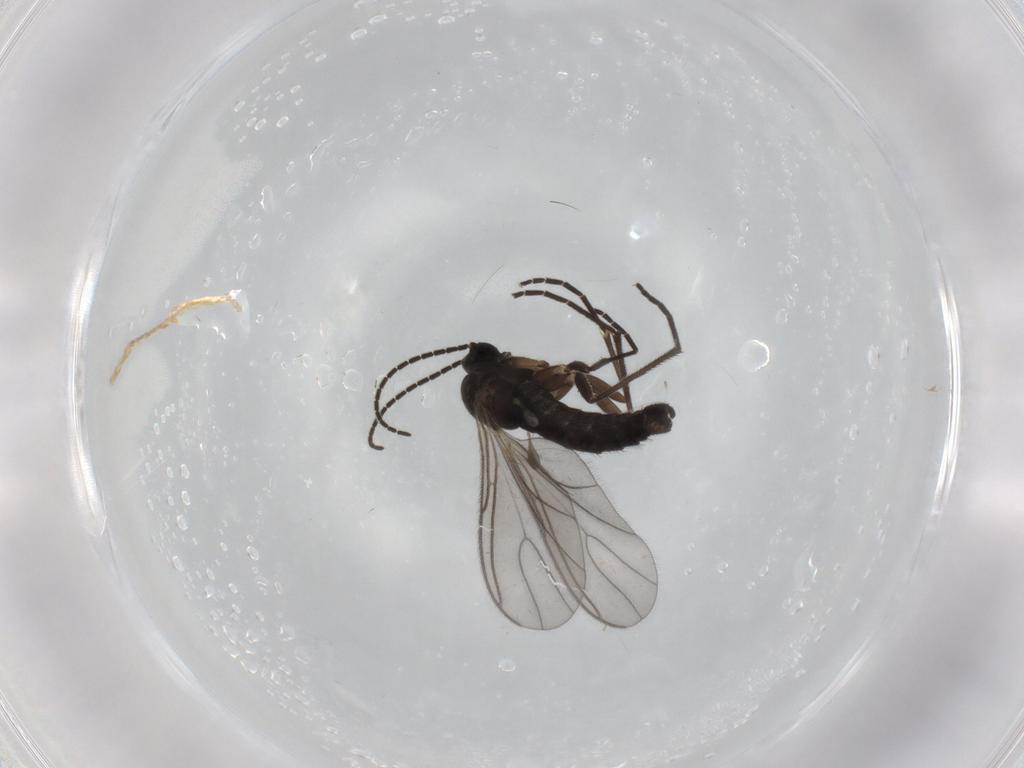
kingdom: Animalia
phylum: Arthropoda
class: Insecta
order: Diptera
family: Sciaridae
